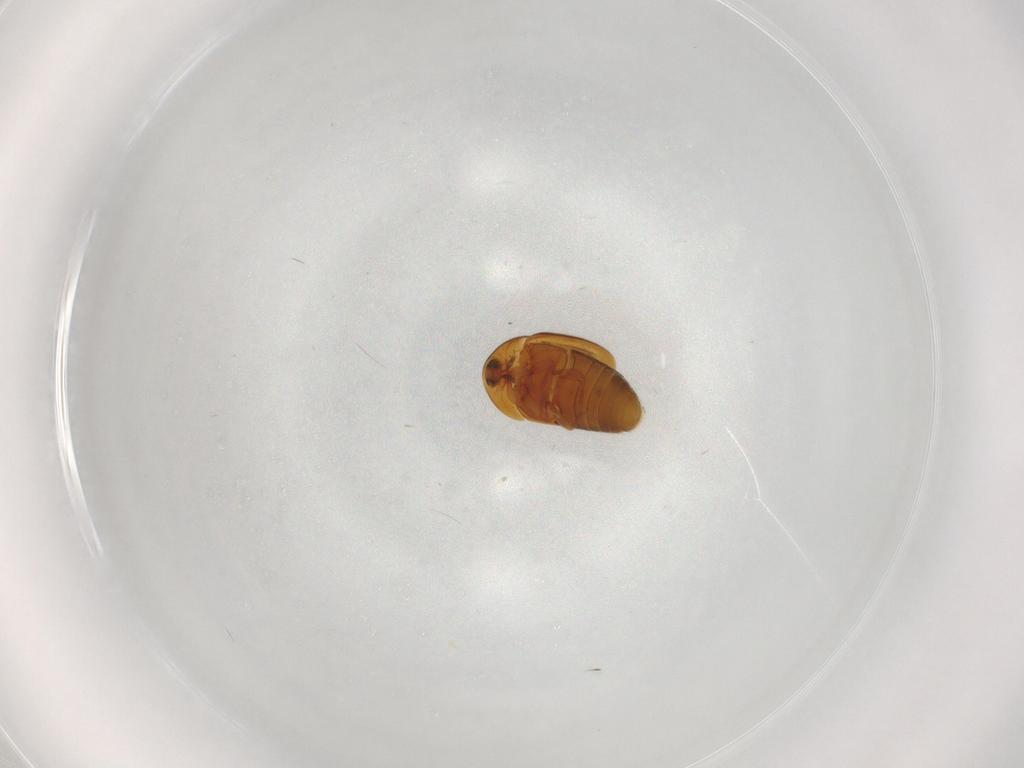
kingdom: Animalia
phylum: Arthropoda
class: Insecta
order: Coleoptera
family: Corylophidae
